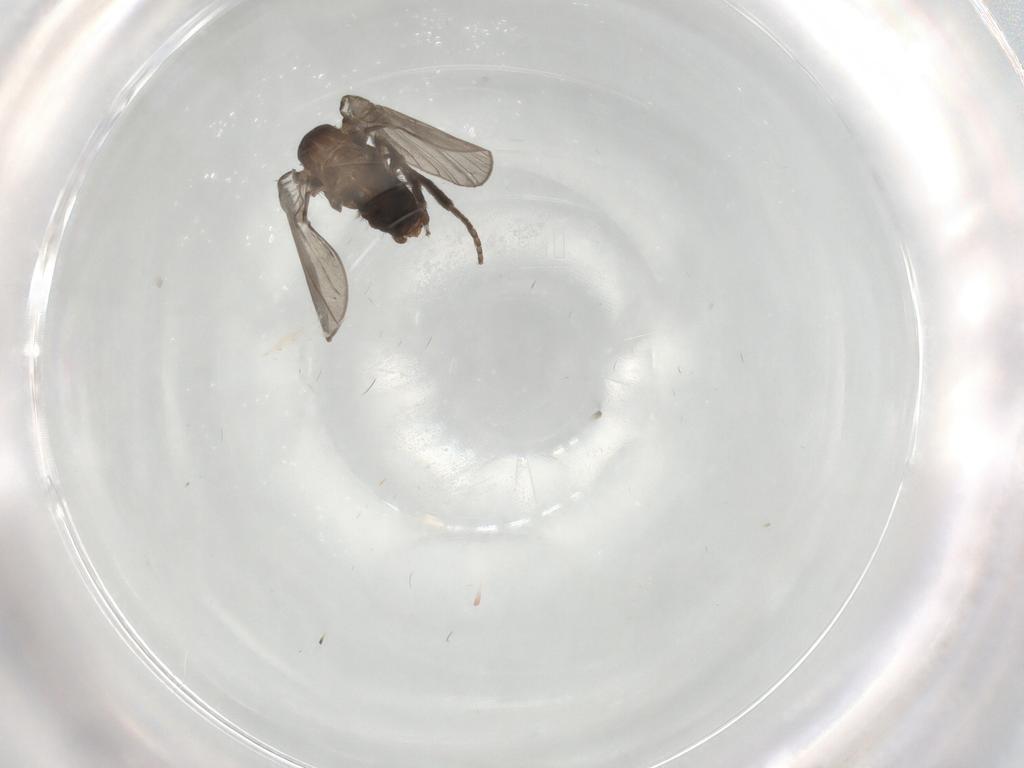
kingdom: Animalia
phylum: Arthropoda
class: Insecta
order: Diptera
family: Psychodidae
